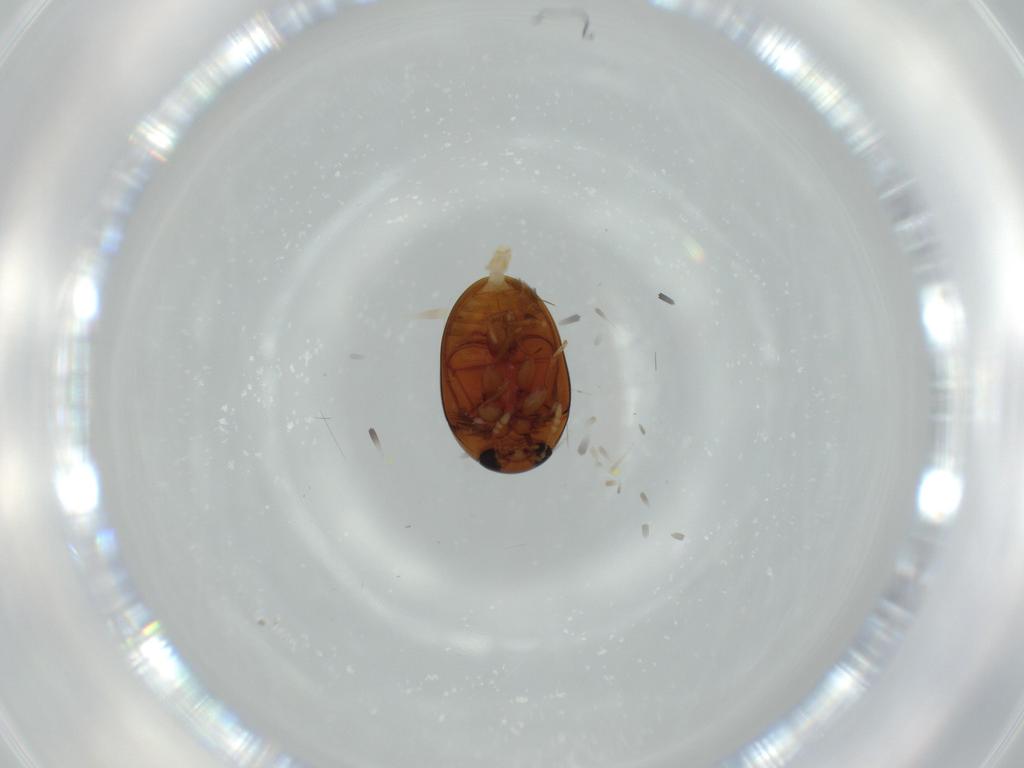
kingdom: Animalia
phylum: Arthropoda
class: Insecta
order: Coleoptera
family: Phalacridae
